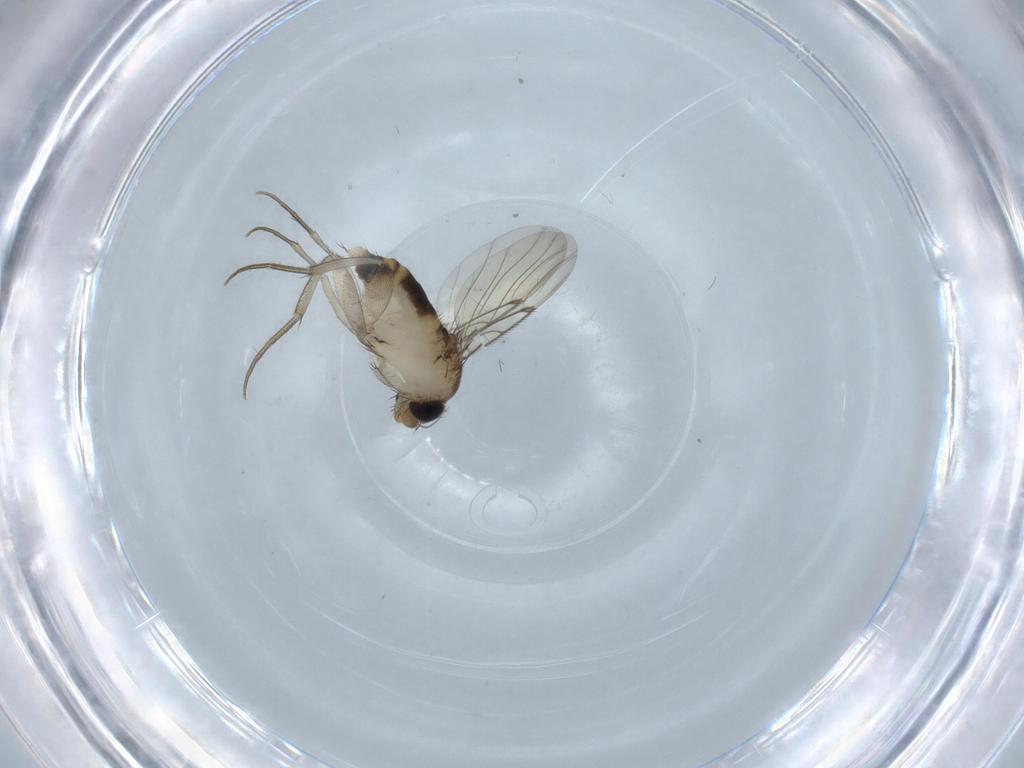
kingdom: Animalia
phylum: Arthropoda
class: Insecta
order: Diptera
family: Phoridae
